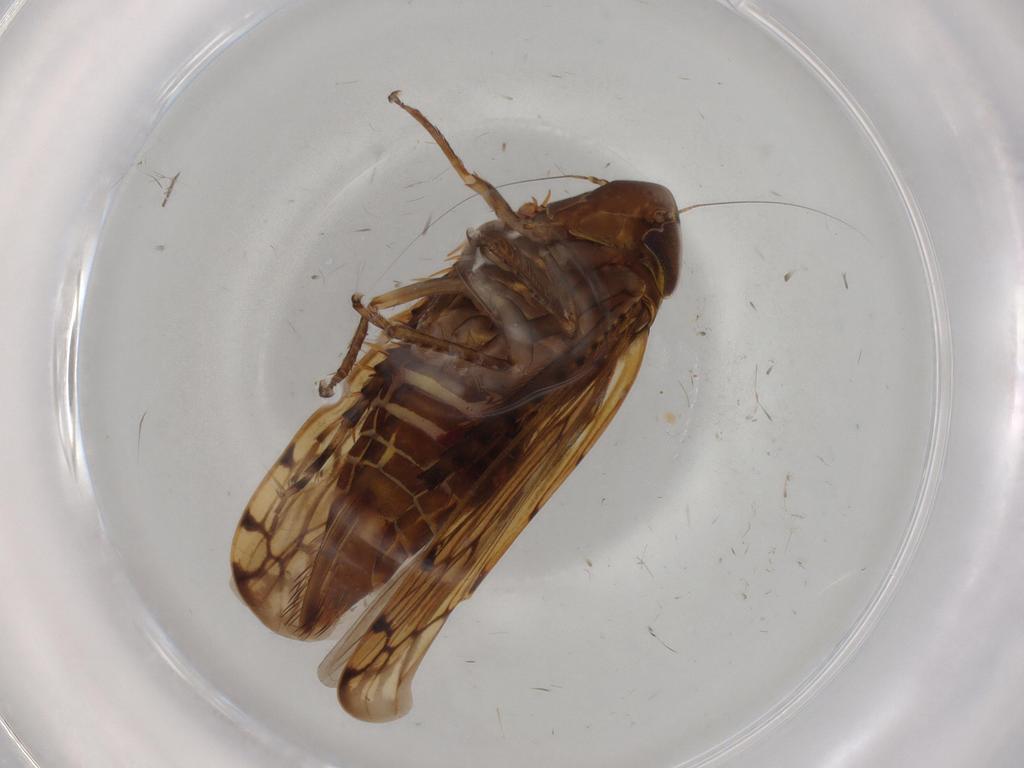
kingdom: Animalia
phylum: Arthropoda
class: Insecta
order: Hemiptera
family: Cicadellidae
